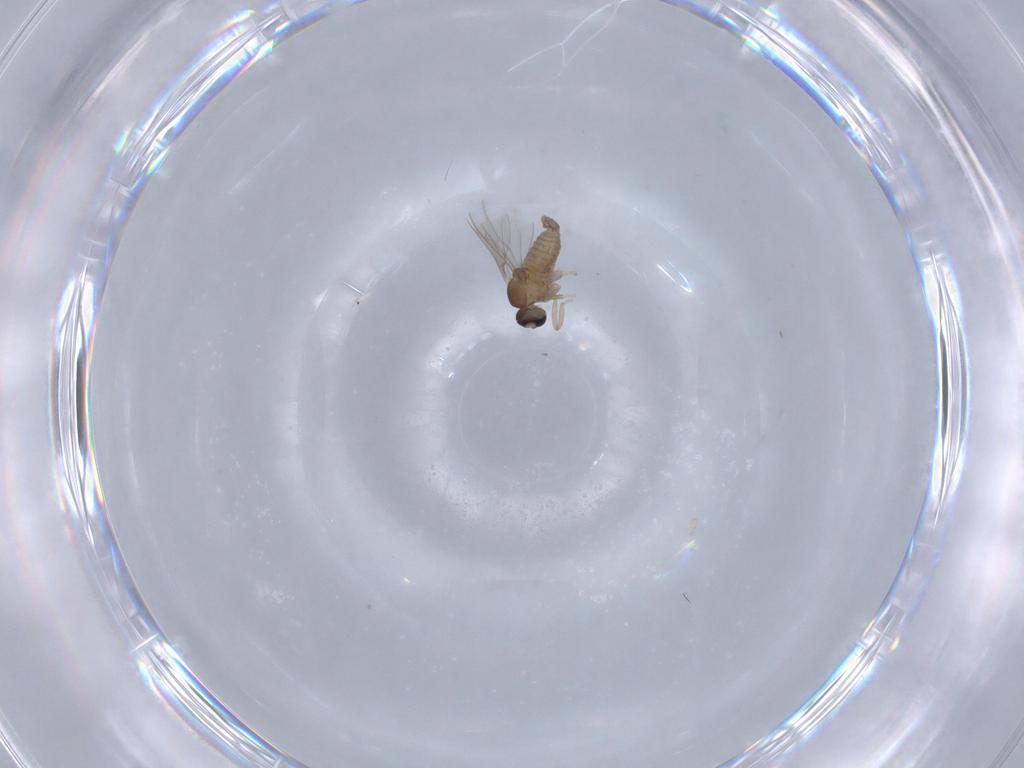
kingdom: Animalia
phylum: Arthropoda
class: Insecta
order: Diptera
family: Cecidomyiidae
